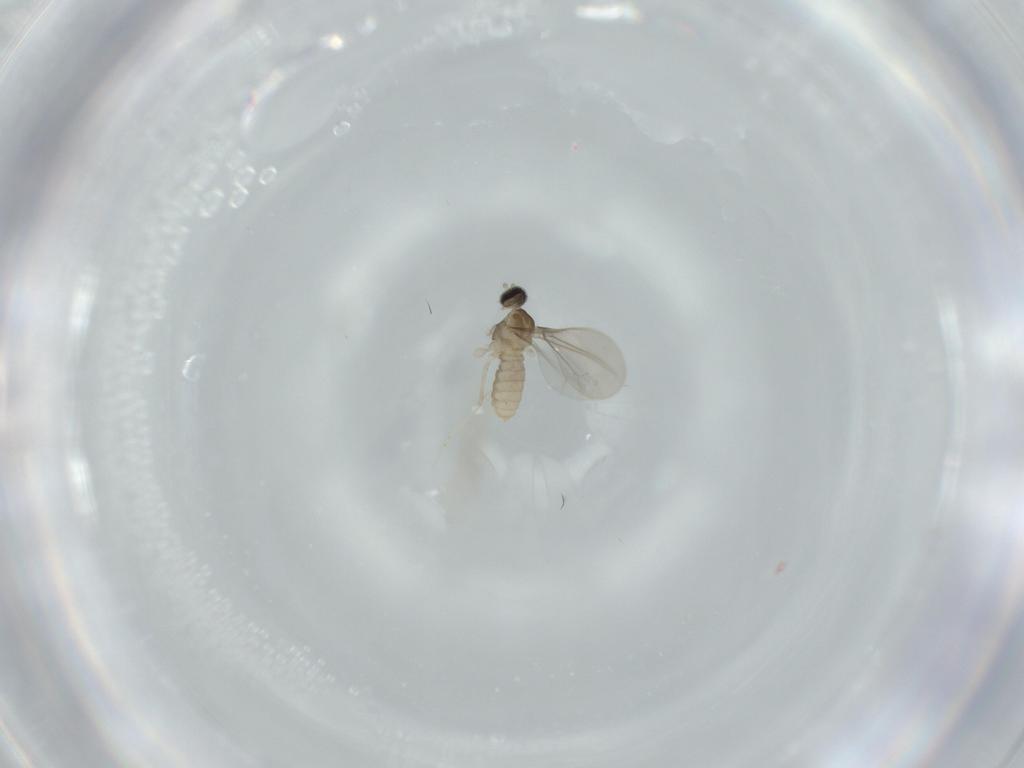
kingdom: Animalia
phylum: Arthropoda
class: Insecta
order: Diptera
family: Cecidomyiidae
